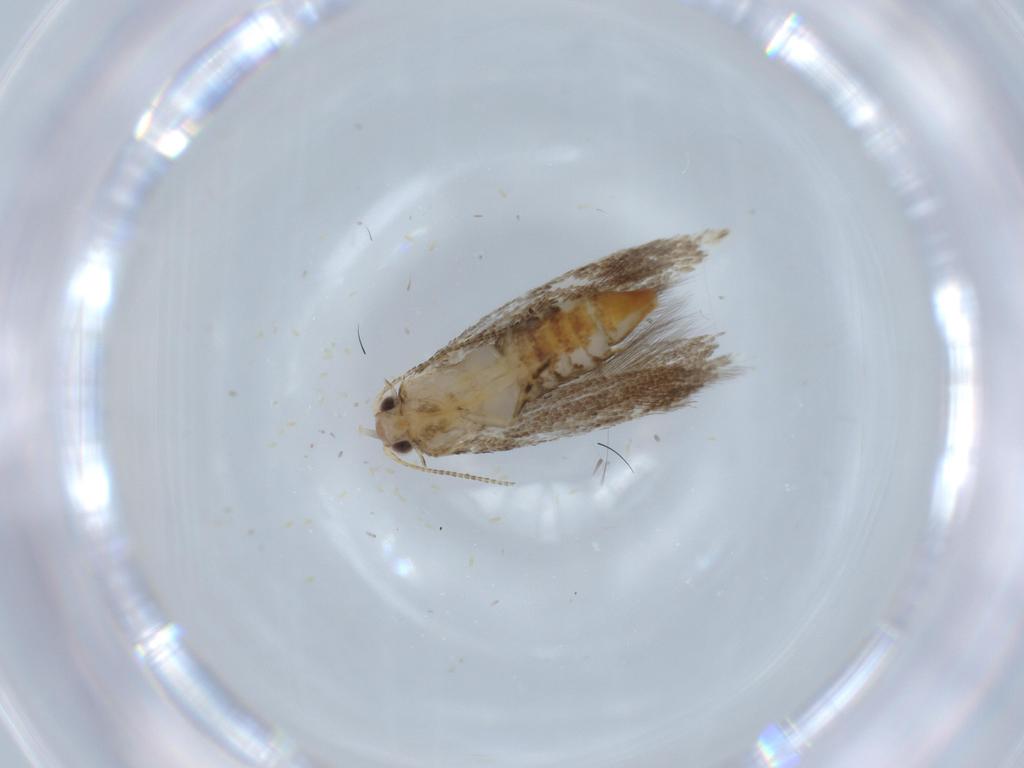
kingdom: Animalia
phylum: Arthropoda
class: Insecta
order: Lepidoptera
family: Tineidae
